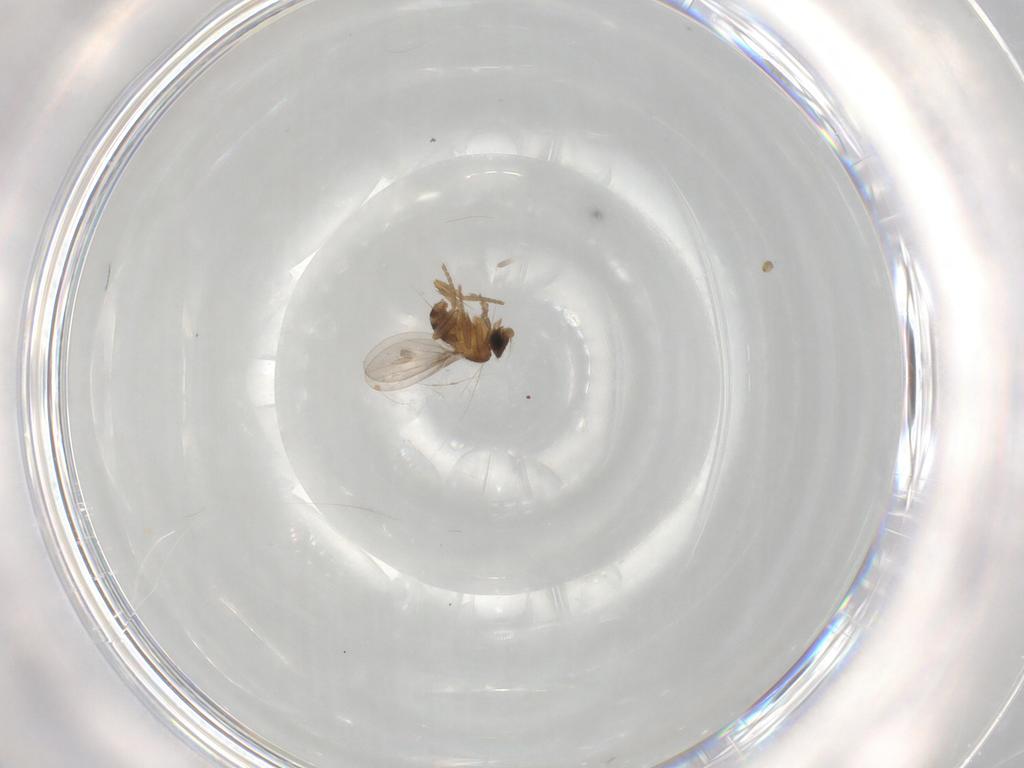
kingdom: Animalia
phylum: Arthropoda
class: Insecta
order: Diptera
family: Phoridae
